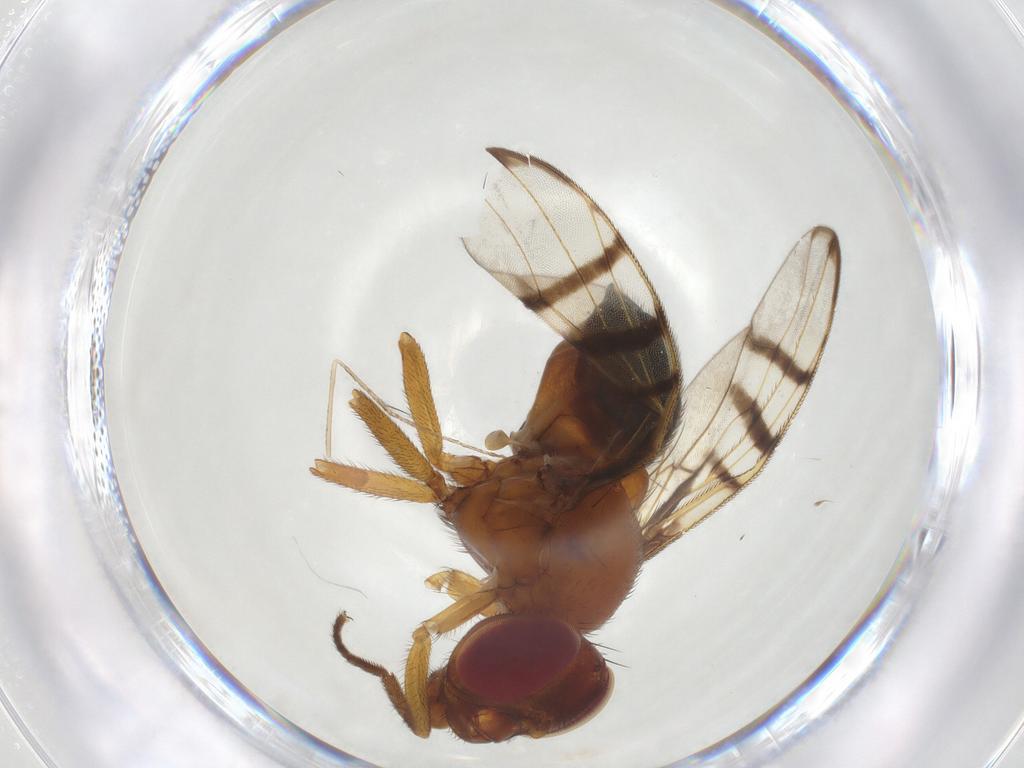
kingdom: Animalia
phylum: Arthropoda
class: Insecta
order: Diptera
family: Platystomatidae
